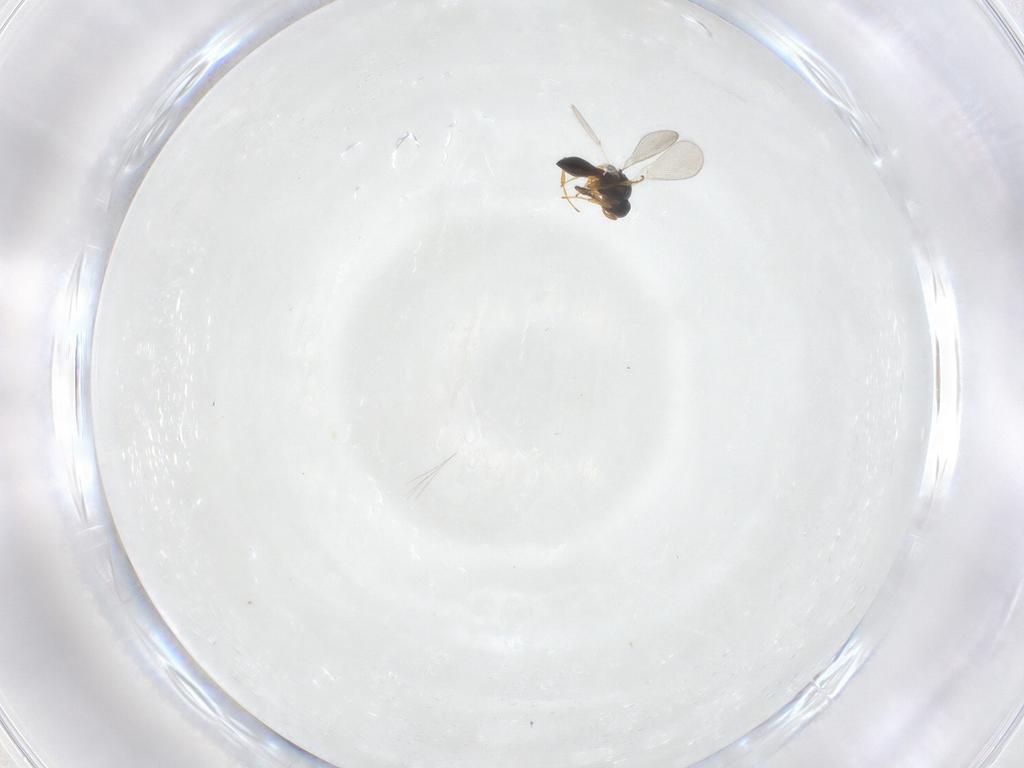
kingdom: Animalia
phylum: Arthropoda
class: Insecta
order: Hymenoptera
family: Platygastridae
